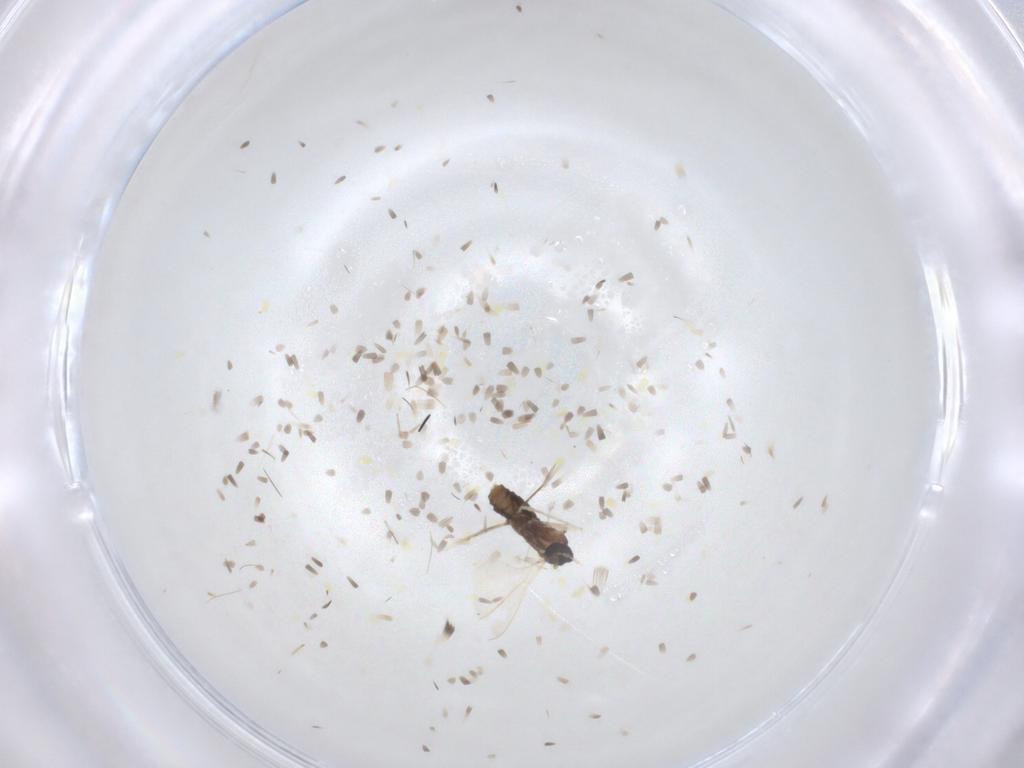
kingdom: Animalia
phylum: Arthropoda
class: Insecta
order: Diptera
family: Cecidomyiidae
